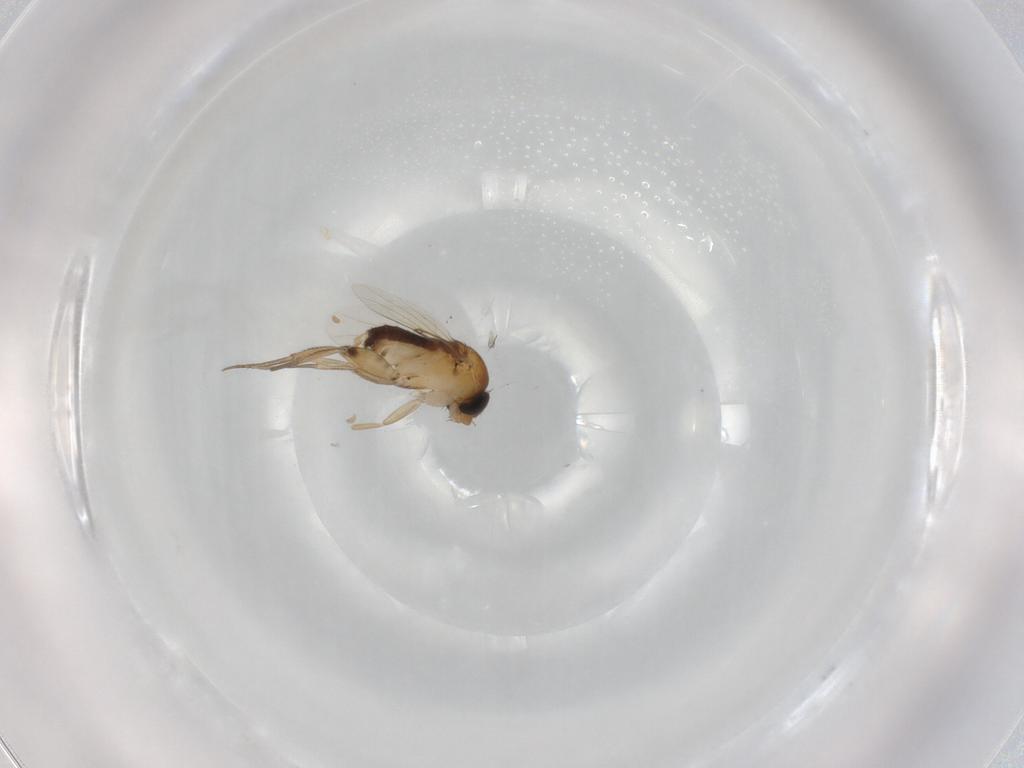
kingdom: Animalia
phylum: Arthropoda
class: Insecta
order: Diptera
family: Phoridae
